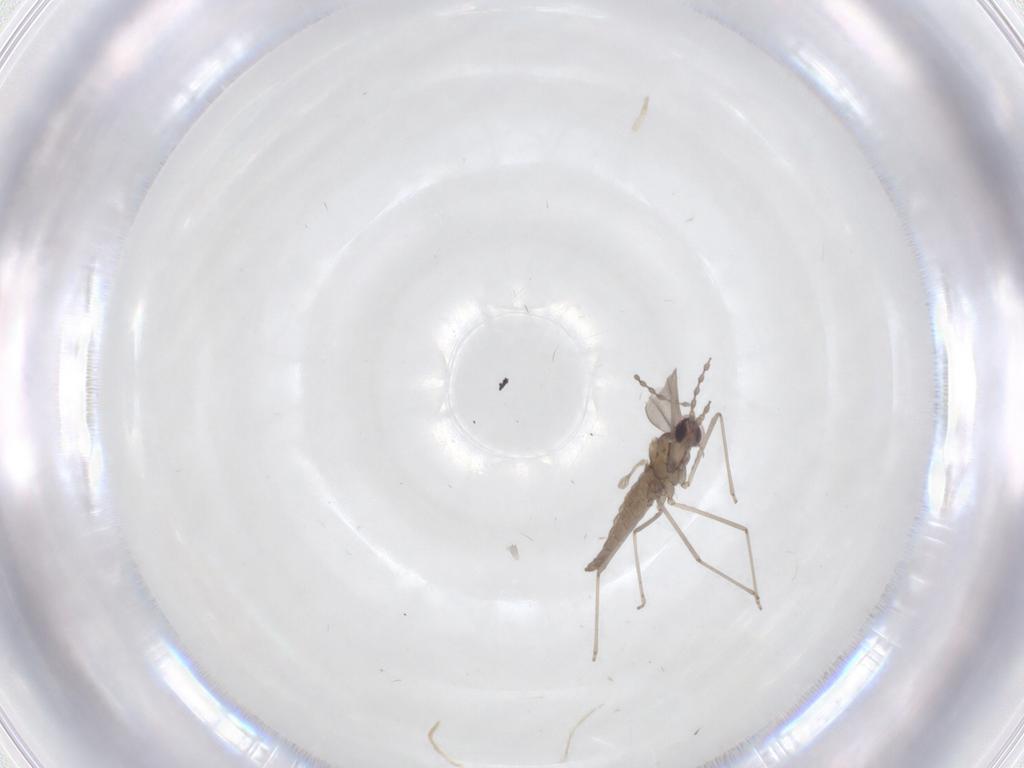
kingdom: Animalia
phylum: Arthropoda
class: Insecta
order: Diptera
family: Cecidomyiidae
